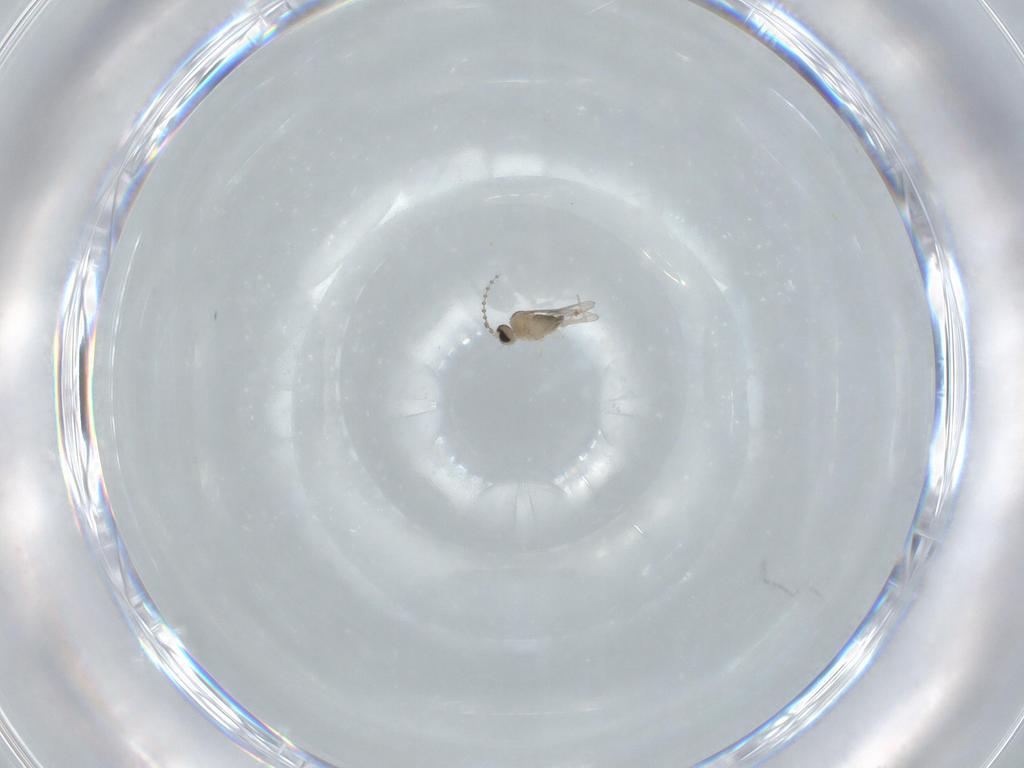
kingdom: Animalia
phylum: Arthropoda
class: Insecta
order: Diptera
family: Cecidomyiidae
